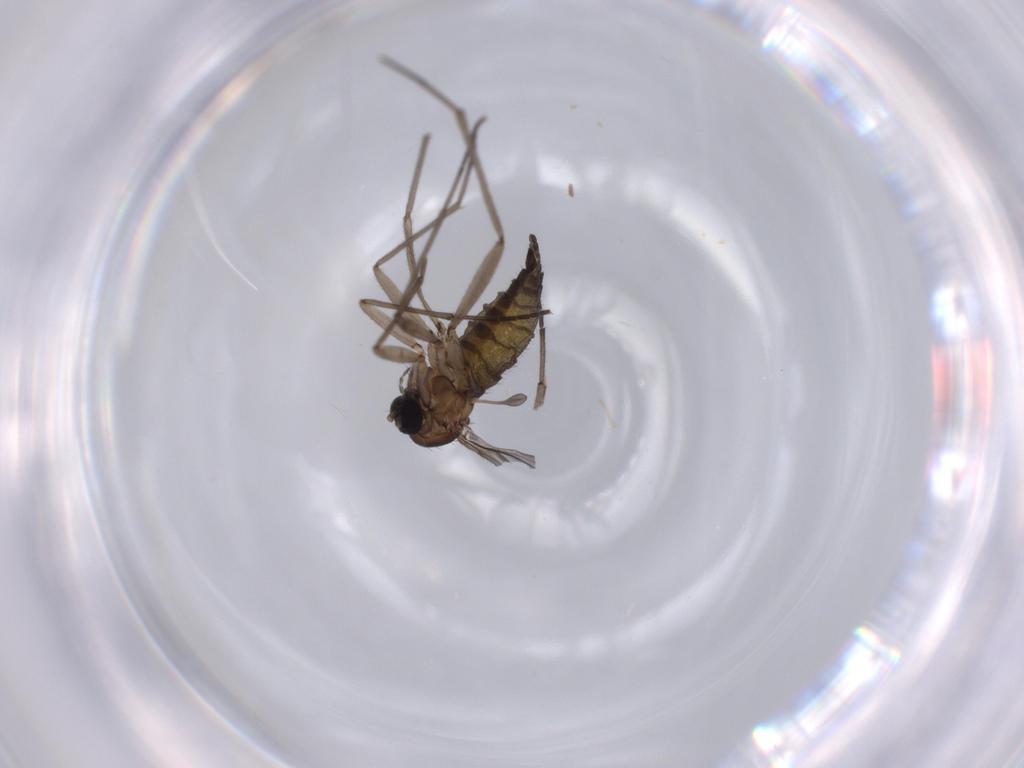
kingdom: Animalia
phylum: Arthropoda
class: Insecta
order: Diptera
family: Sciaridae
